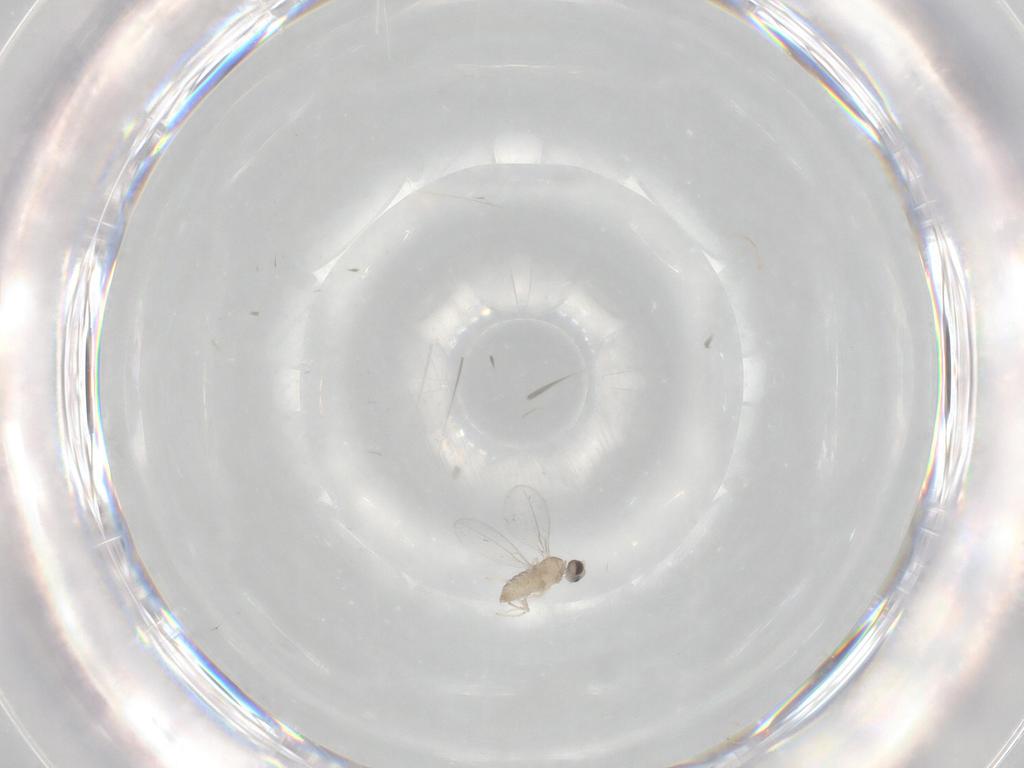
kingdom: Animalia
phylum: Arthropoda
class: Insecta
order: Diptera
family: Cecidomyiidae
